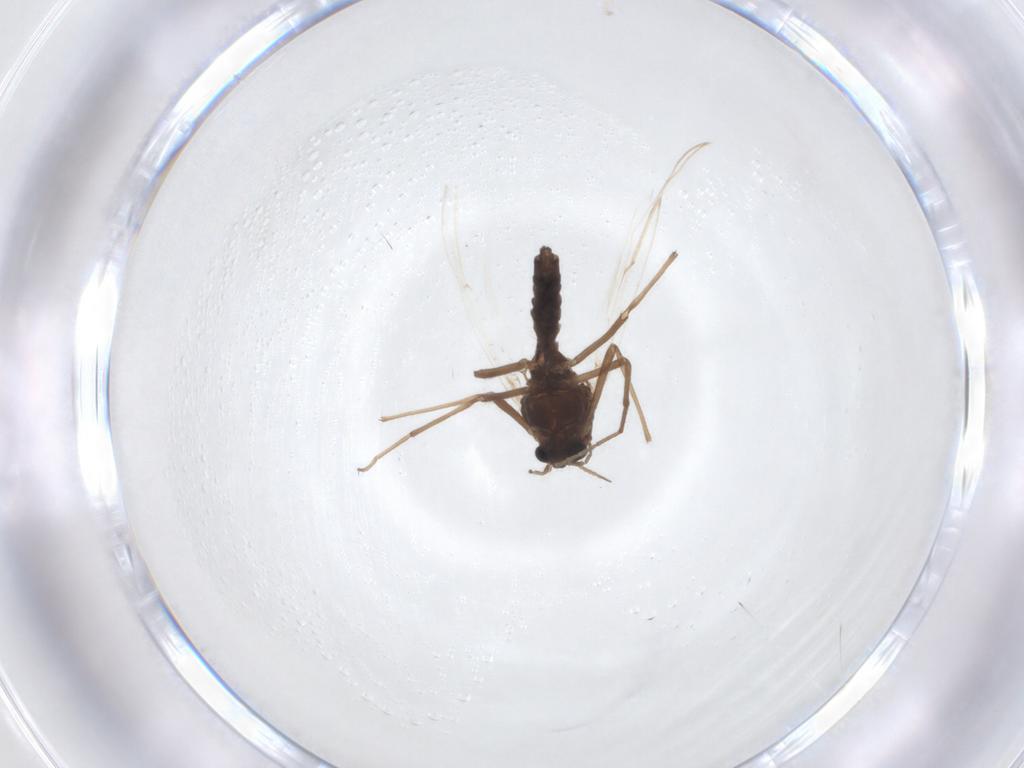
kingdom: Animalia
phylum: Arthropoda
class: Insecta
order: Diptera
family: Chironomidae
